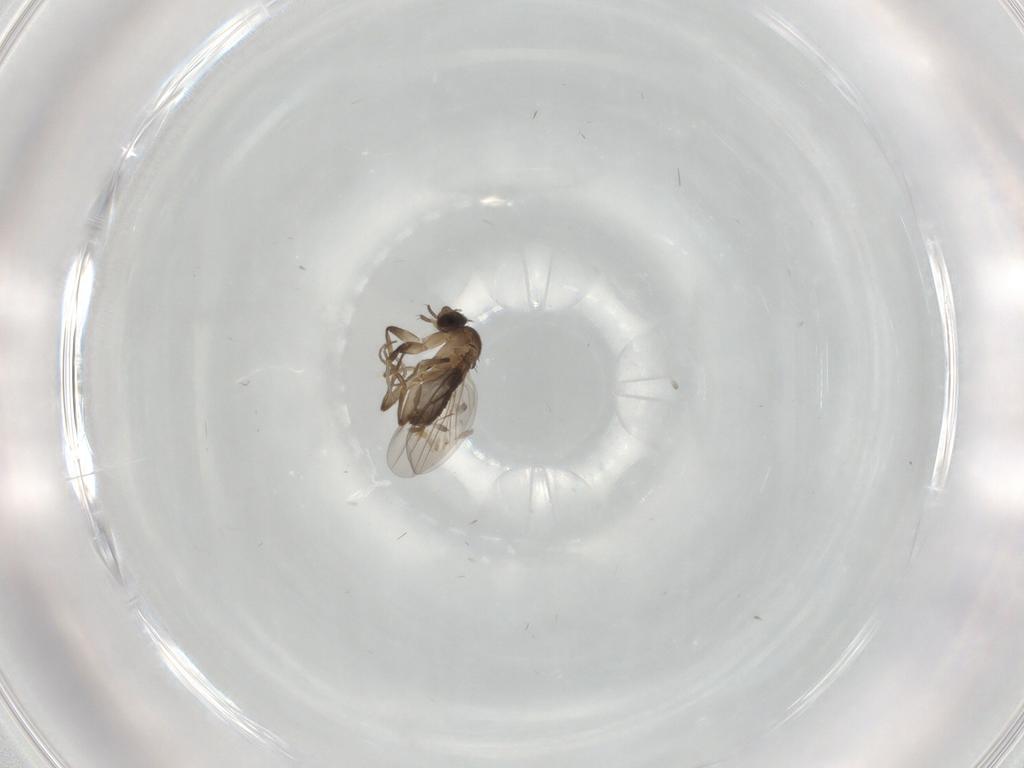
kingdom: Animalia
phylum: Arthropoda
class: Insecta
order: Diptera
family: Phoridae
